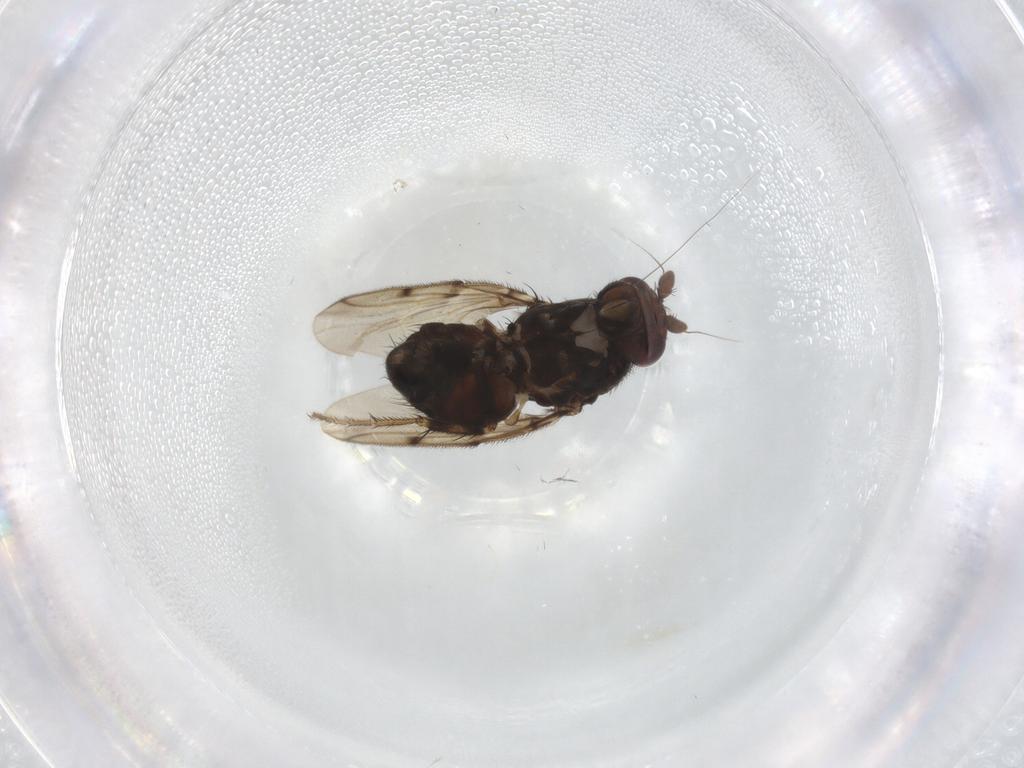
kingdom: Animalia
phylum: Arthropoda
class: Insecta
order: Diptera
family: Sphaeroceridae
